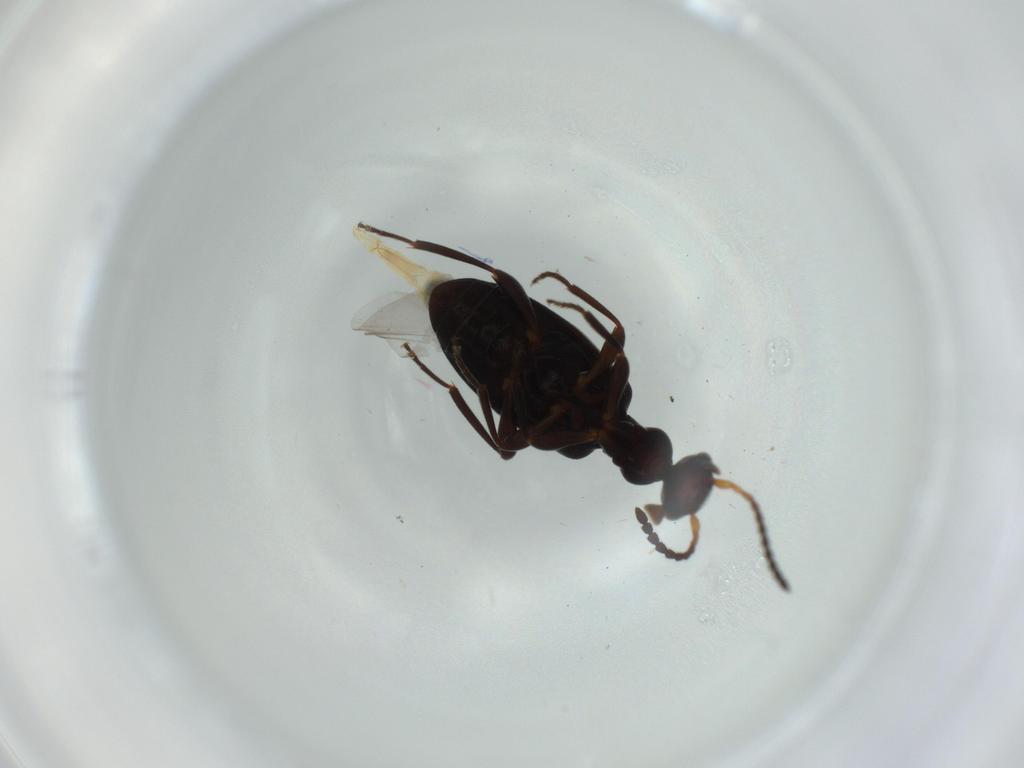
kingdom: Animalia
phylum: Arthropoda
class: Insecta
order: Coleoptera
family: Anthicidae
